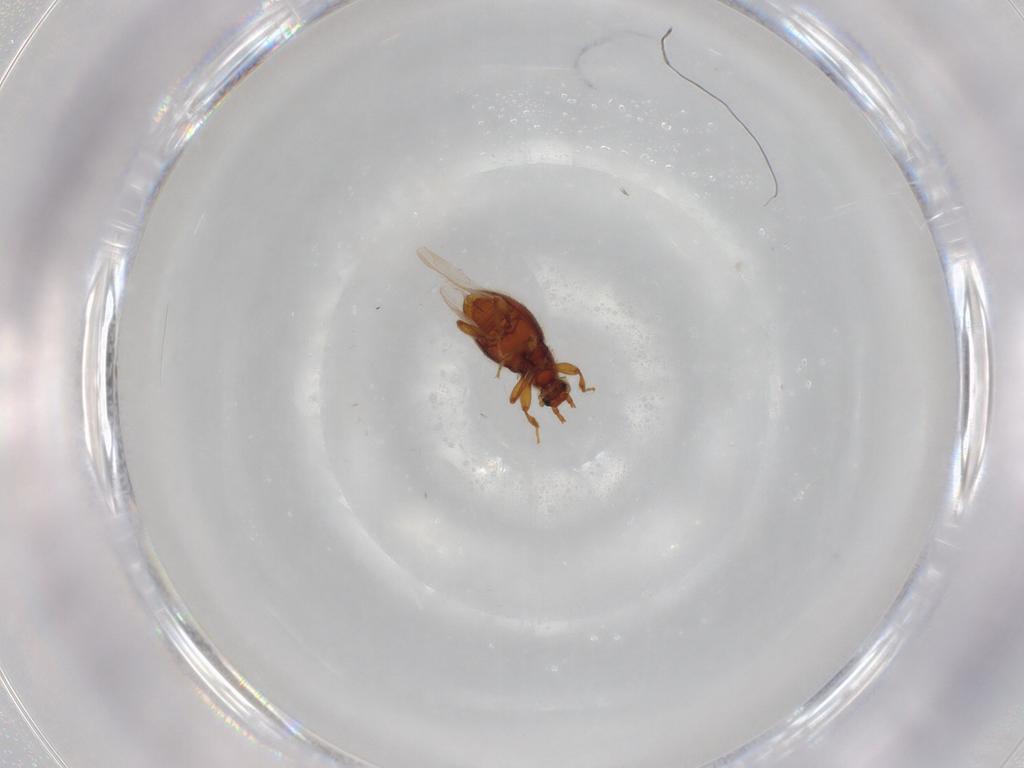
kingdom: Animalia
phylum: Arthropoda
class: Insecta
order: Coleoptera
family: Staphylinidae
